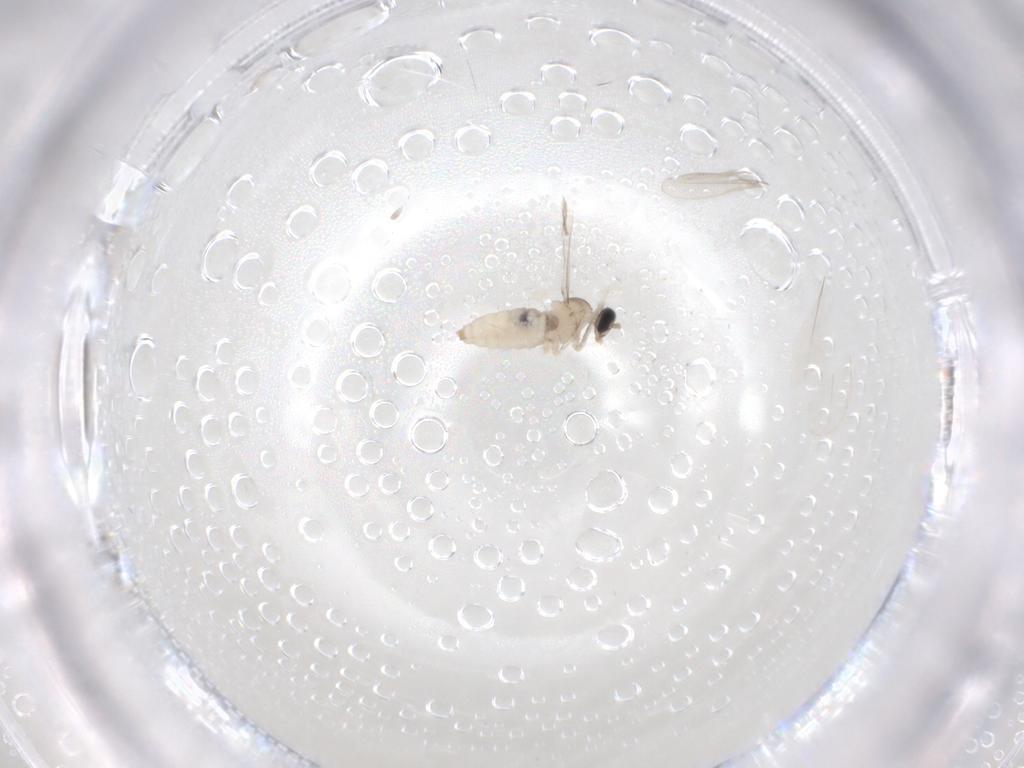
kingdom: Animalia
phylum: Arthropoda
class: Insecta
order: Diptera
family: Cecidomyiidae
